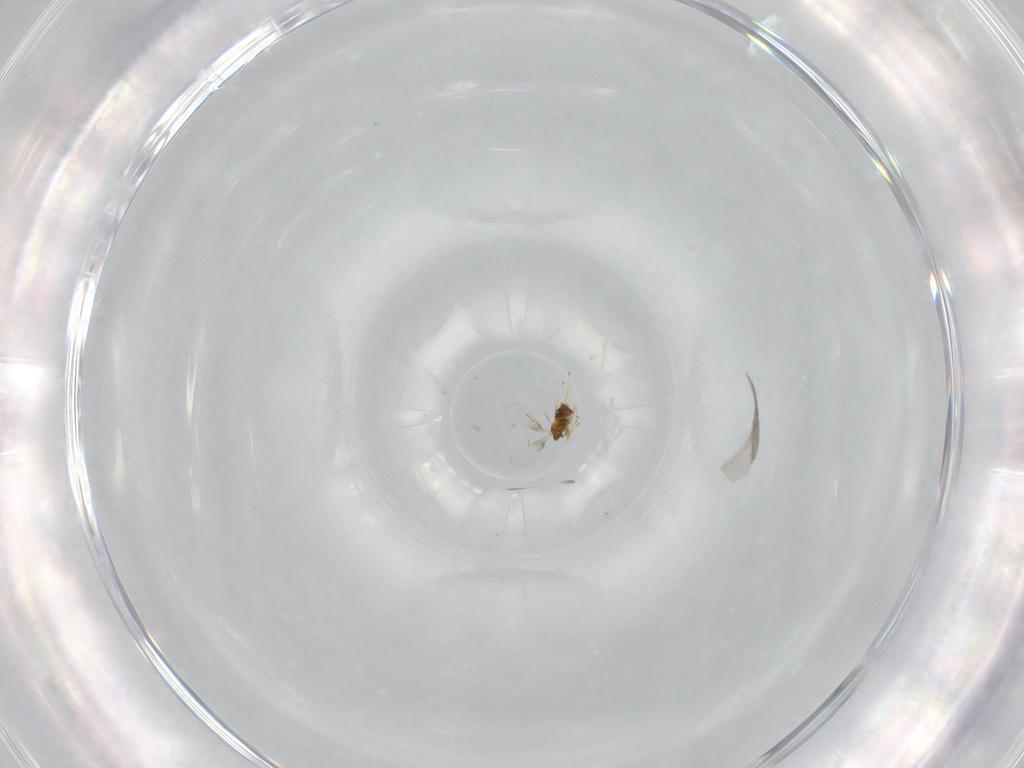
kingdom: Animalia
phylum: Arthropoda
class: Insecta
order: Hymenoptera
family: Trichogrammatidae
